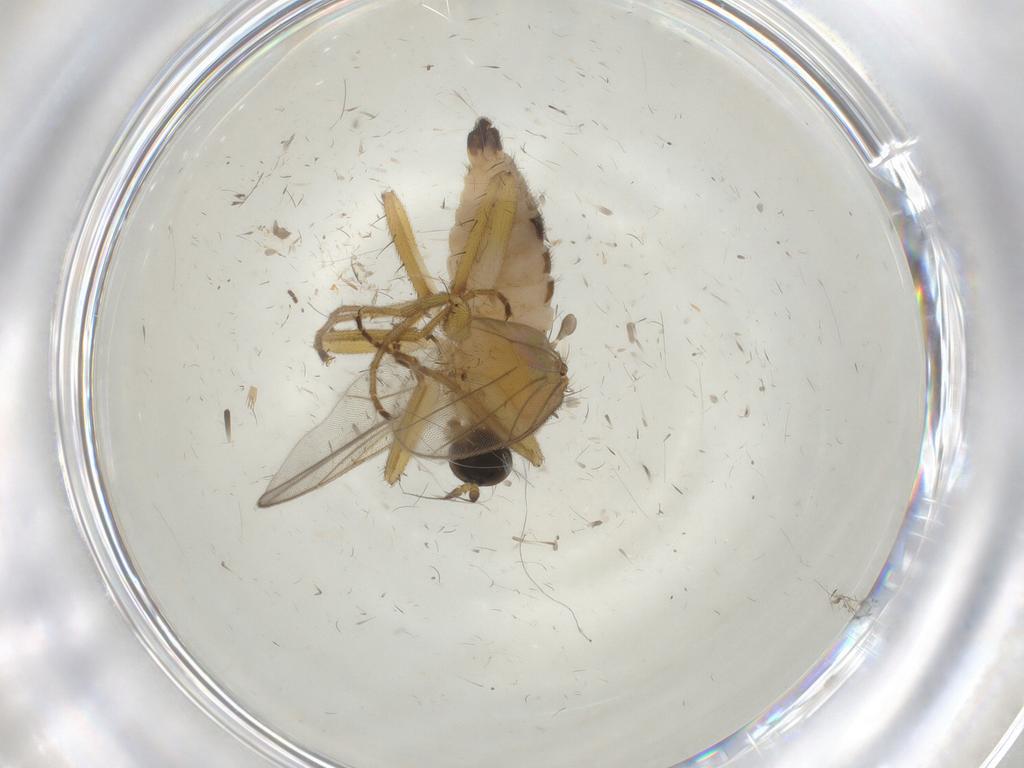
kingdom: Animalia
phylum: Arthropoda
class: Insecta
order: Diptera
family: Hybotidae
